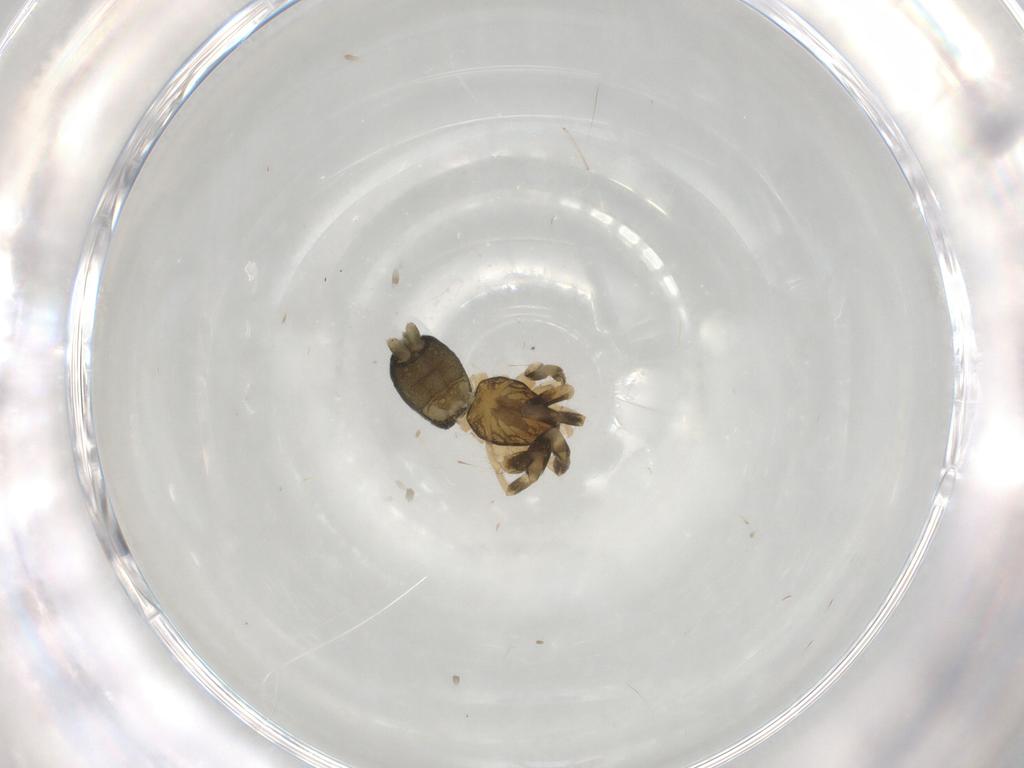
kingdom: Animalia
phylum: Arthropoda
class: Arachnida
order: Araneae
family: Gnaphosidae
